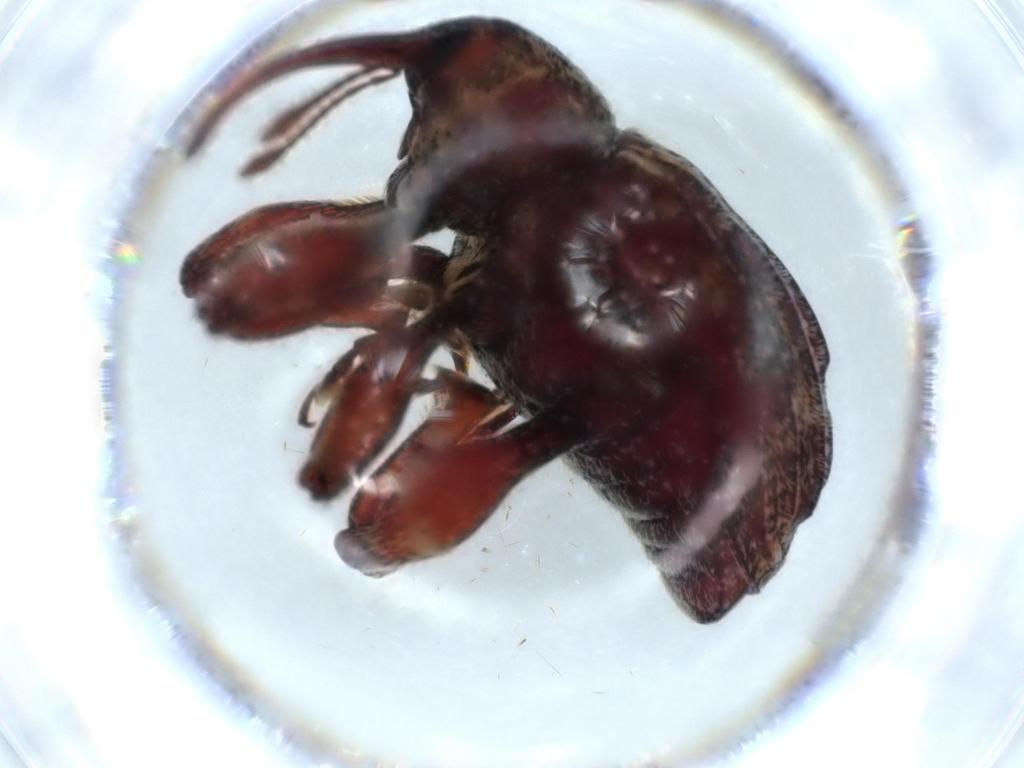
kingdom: Animalia
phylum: Arthropoda
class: Insecta
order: Coleoptera
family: Curculionidae
